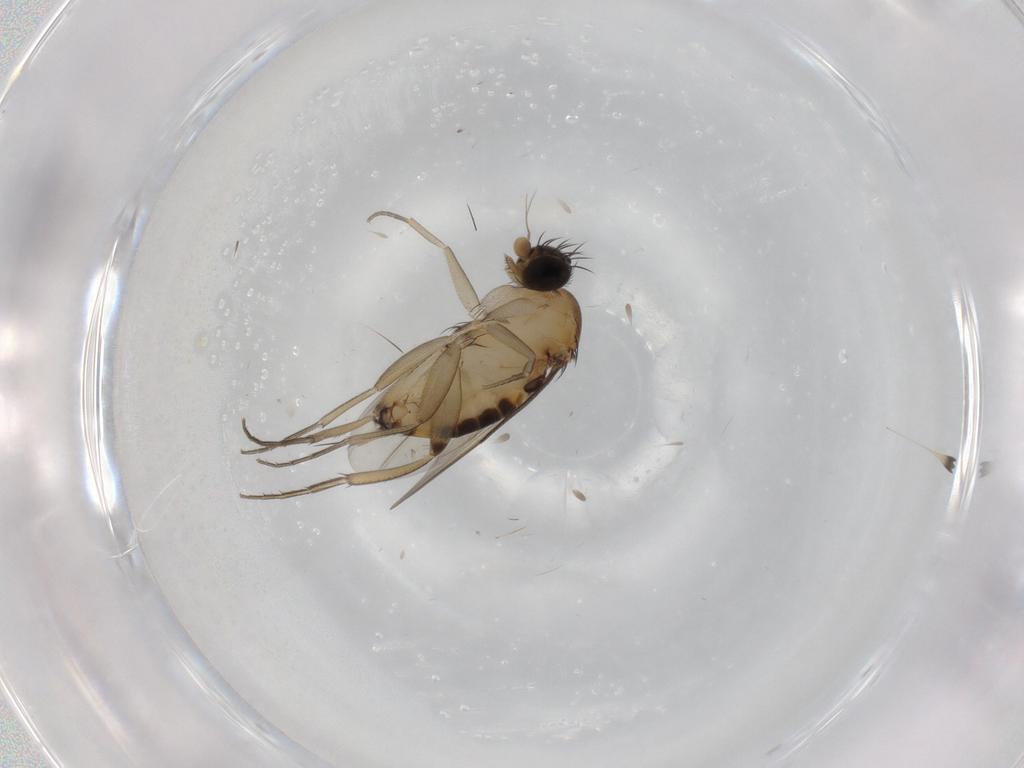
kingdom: Animalia
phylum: Arthropoda
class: Insecta
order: Diptera
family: Phoridae
